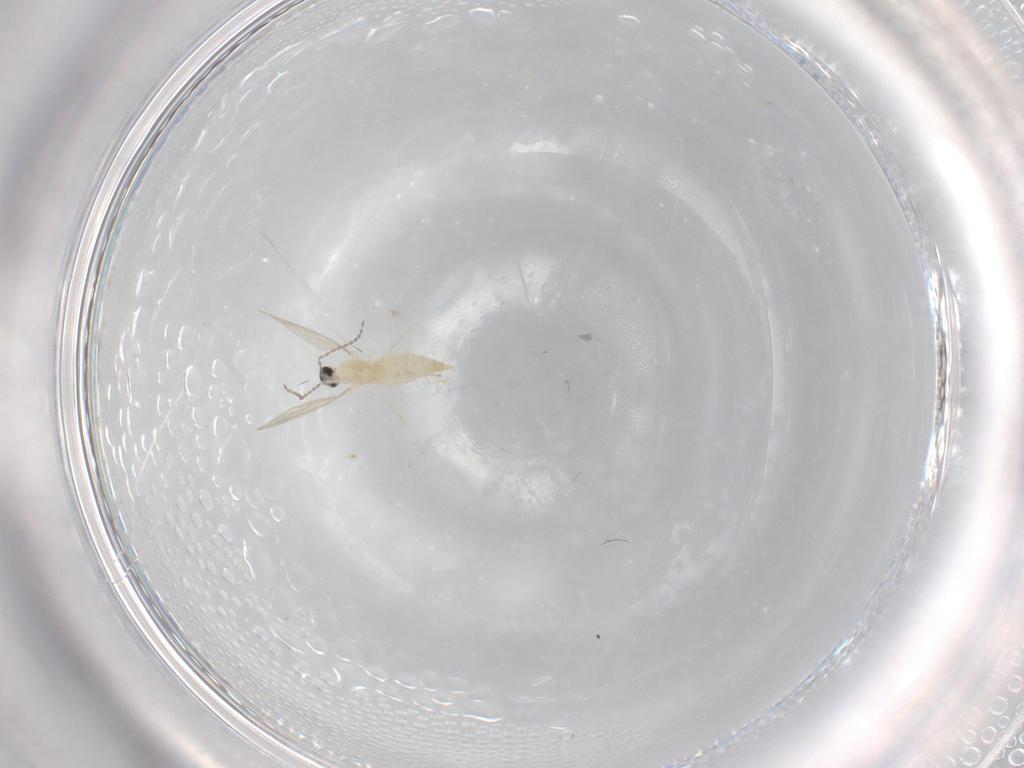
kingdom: Animalia
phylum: Arthropoda
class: Insecta
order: Diptera
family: Cecidomyiidae
